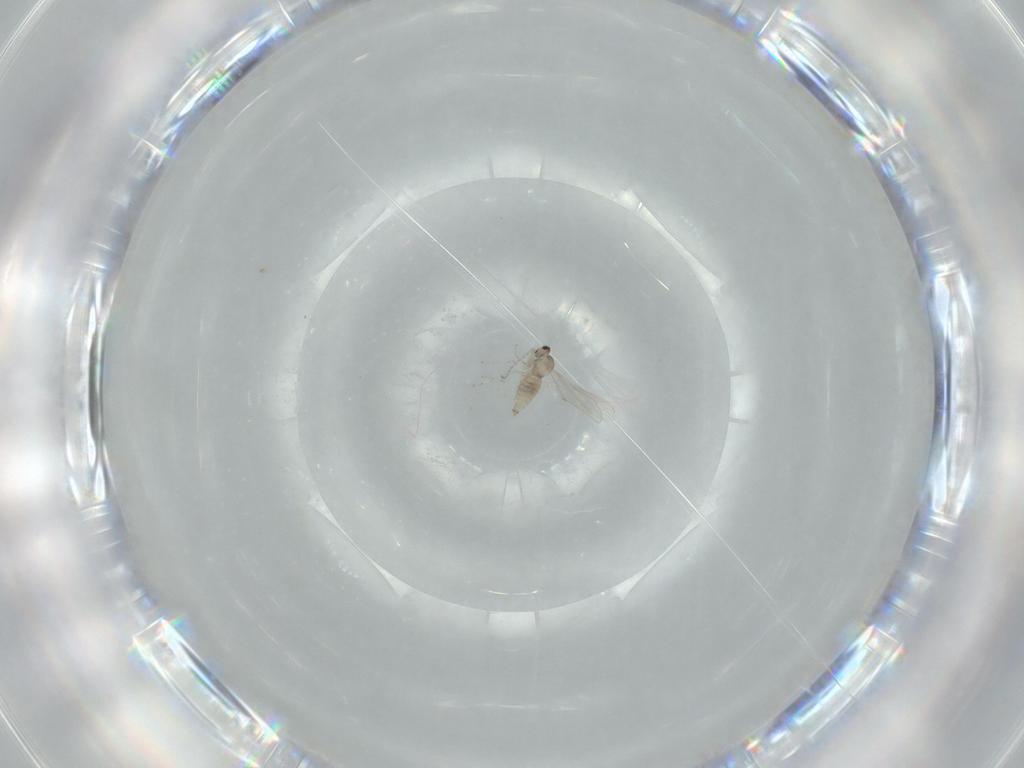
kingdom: Animalia
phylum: Arthropoda
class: Insecta
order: Diptera
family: Cecidomyiidae
